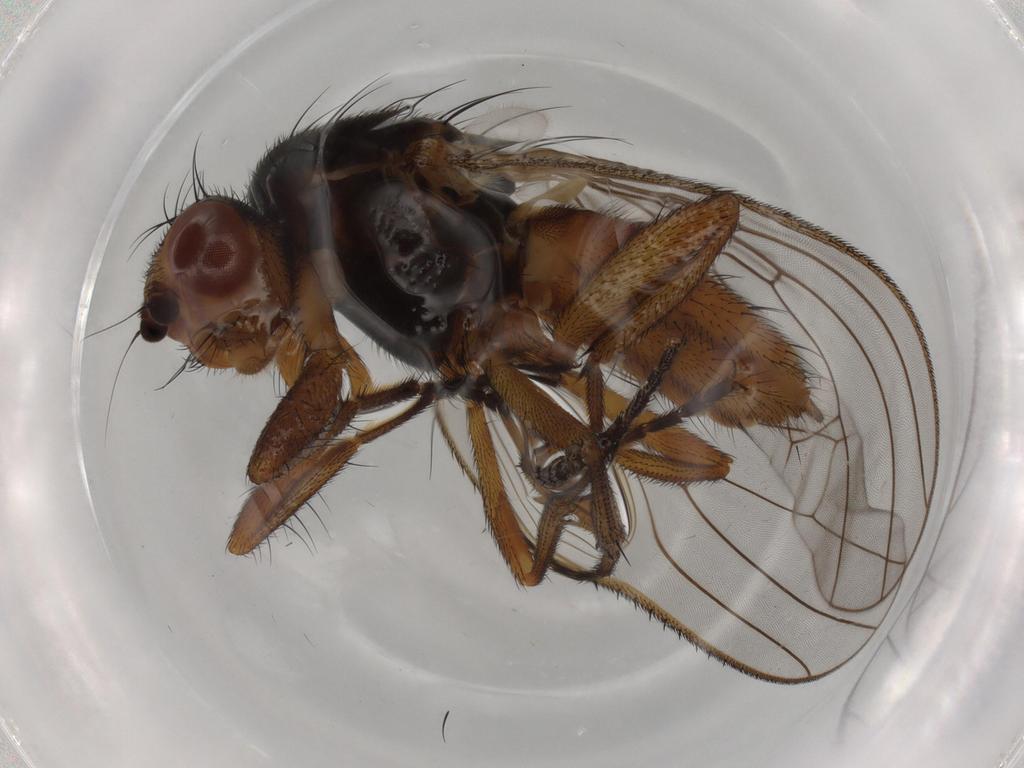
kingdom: Animalia
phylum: Arthropoda
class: Insecta
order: Diptera
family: Heleomyzidae
